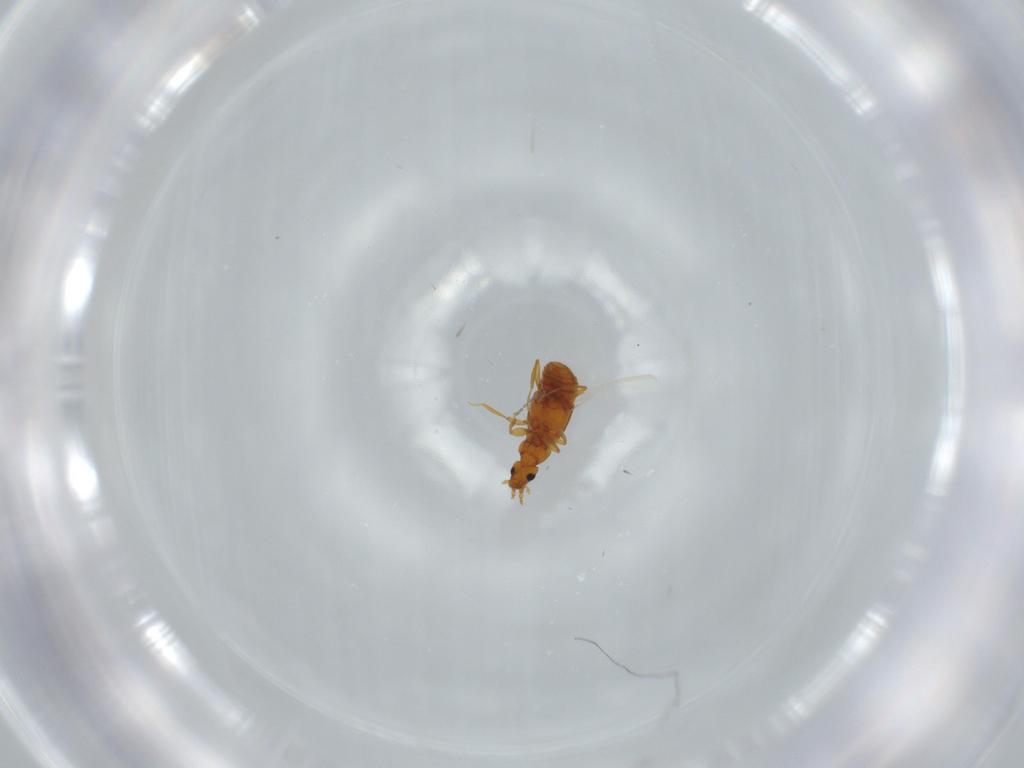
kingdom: Animalia
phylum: Arthropoda
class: Insecta
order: Coleoptera
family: Staphylinidae
